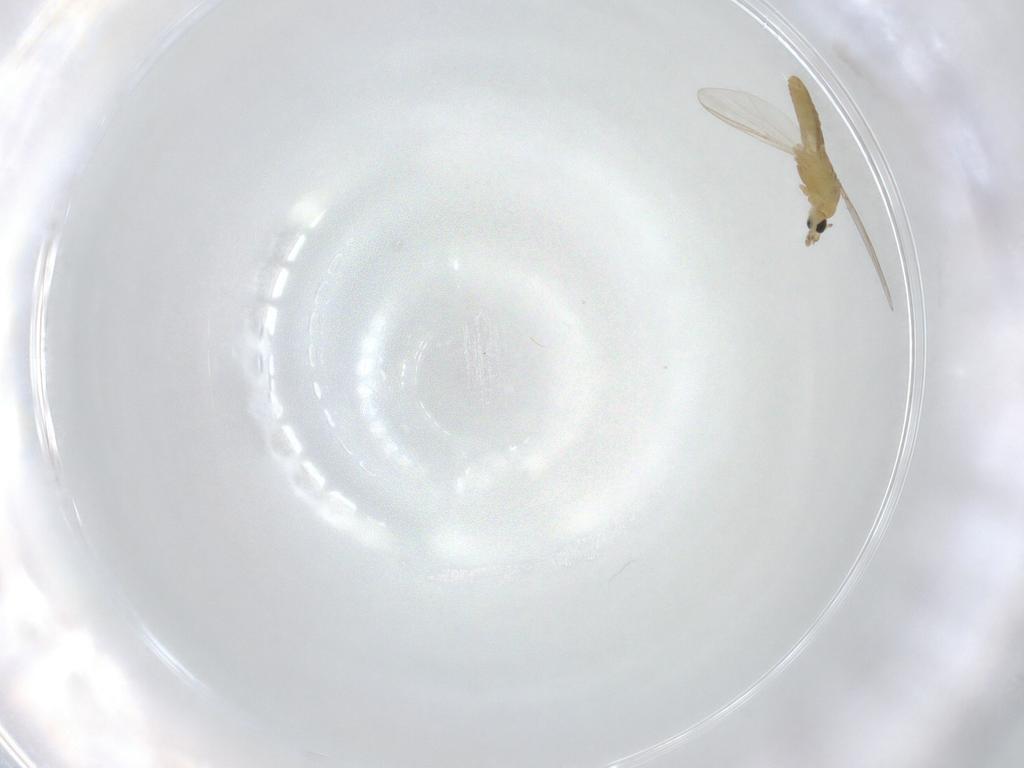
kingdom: Animalia
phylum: Arthropoda
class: Insecta
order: Diptera
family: Chironomidae
